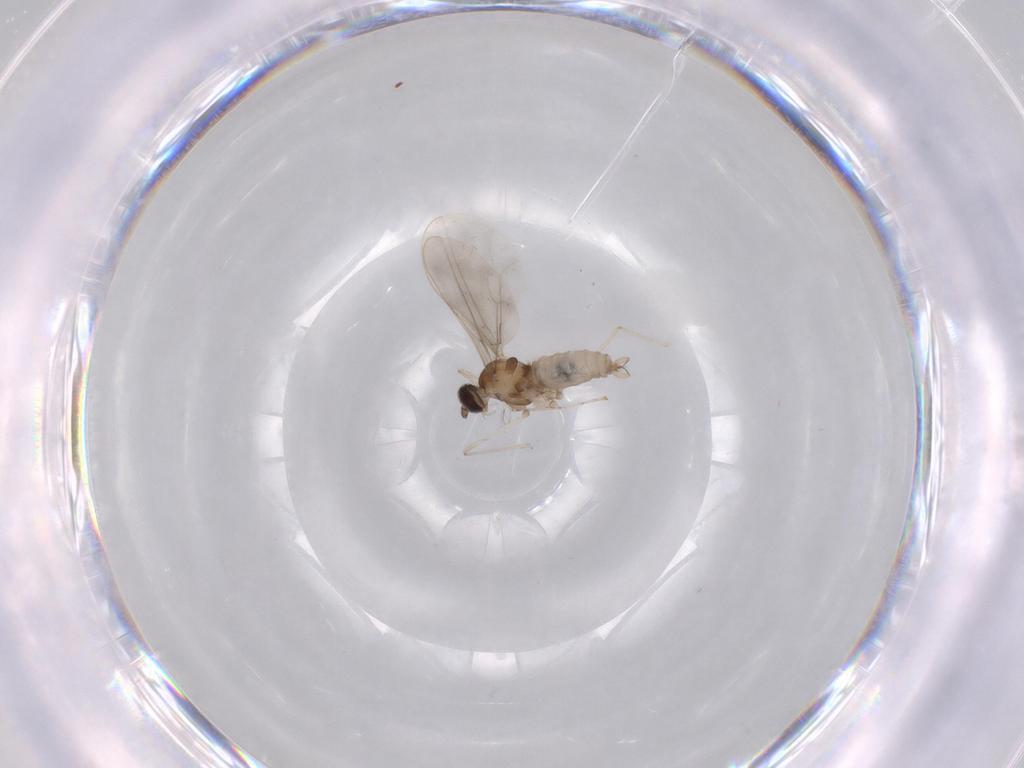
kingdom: Animalia
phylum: Arthropoda
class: Insecta
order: Diptera
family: Cecidomyiidae
